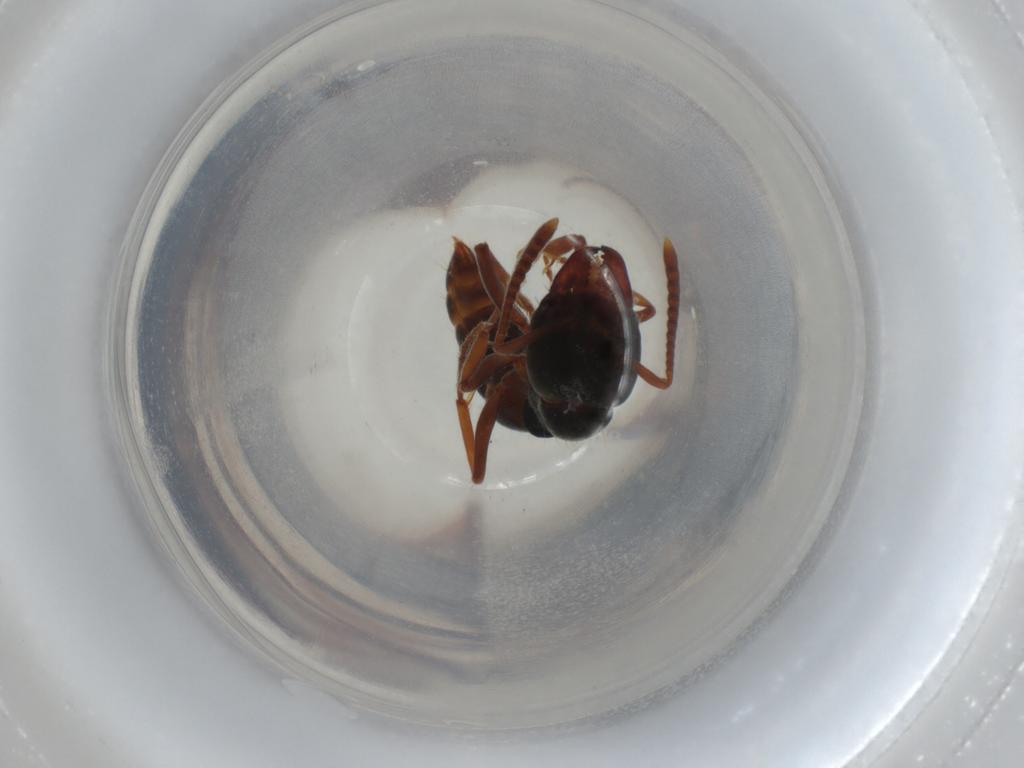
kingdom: Animalia
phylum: Arthropoda
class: Insecta
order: Hymenoptera
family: Formicidae
